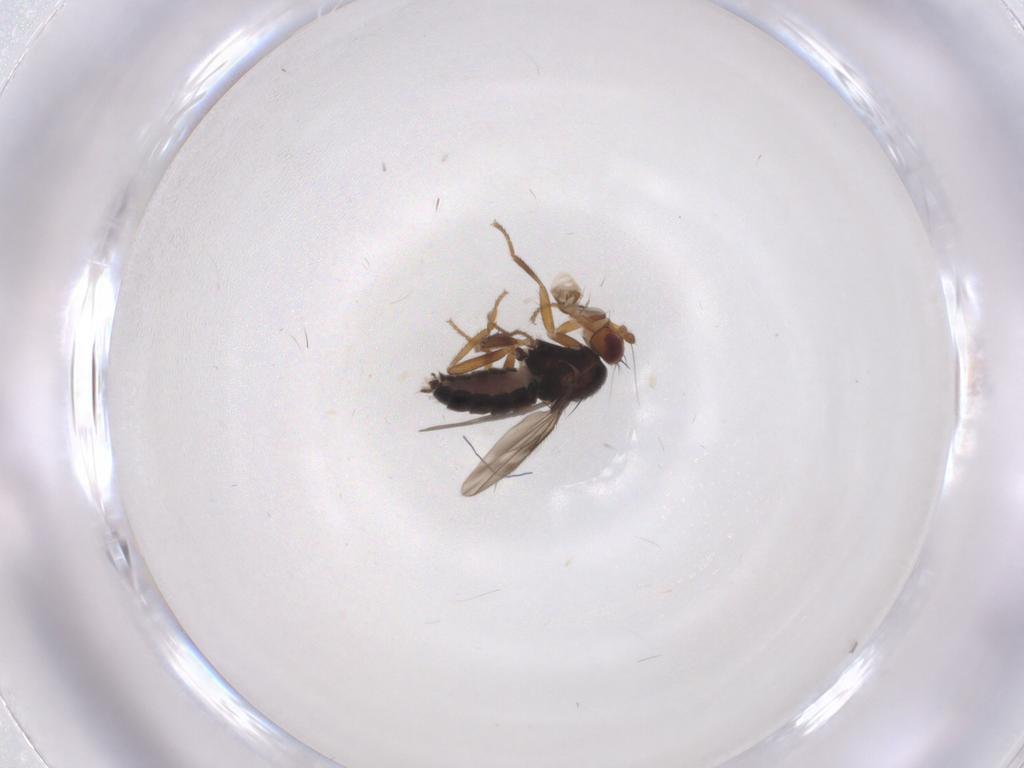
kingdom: Animalia
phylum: Arthropoda
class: Insecta
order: Diptera
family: Sphaeroceridae
